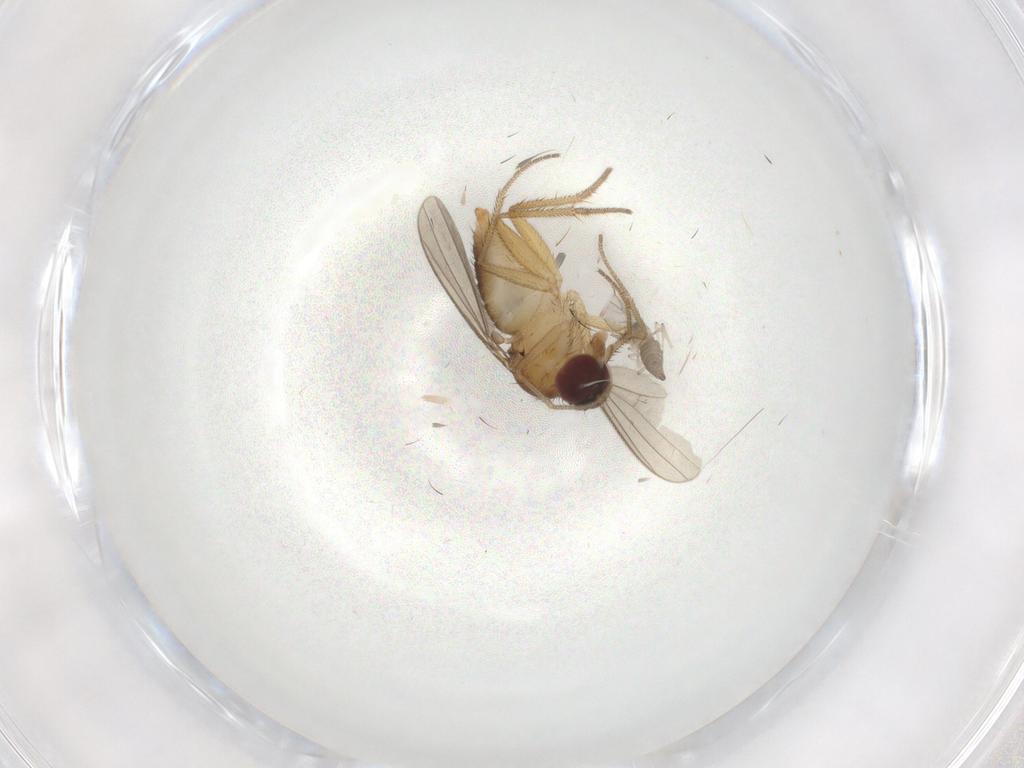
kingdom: Animalia
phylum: Arthropoda
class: Insecta
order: Diptera
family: Dolichopodidae
